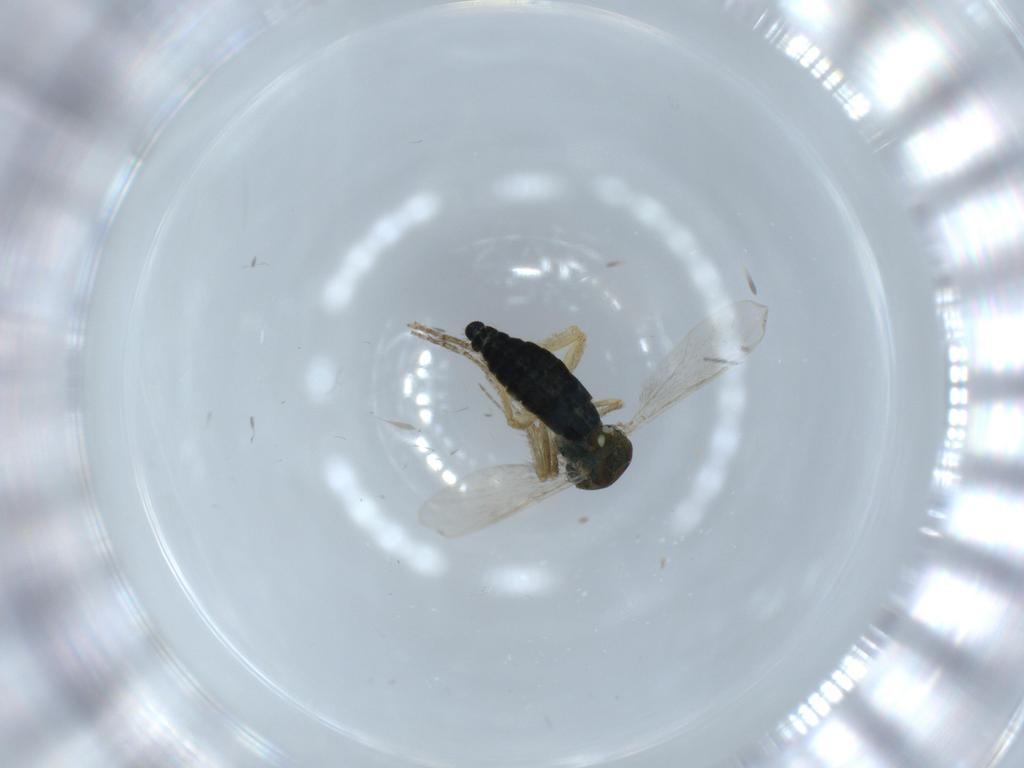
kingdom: Animalia
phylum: Arthropoda
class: Insecta
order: Diptera
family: Ceratopogonidae
